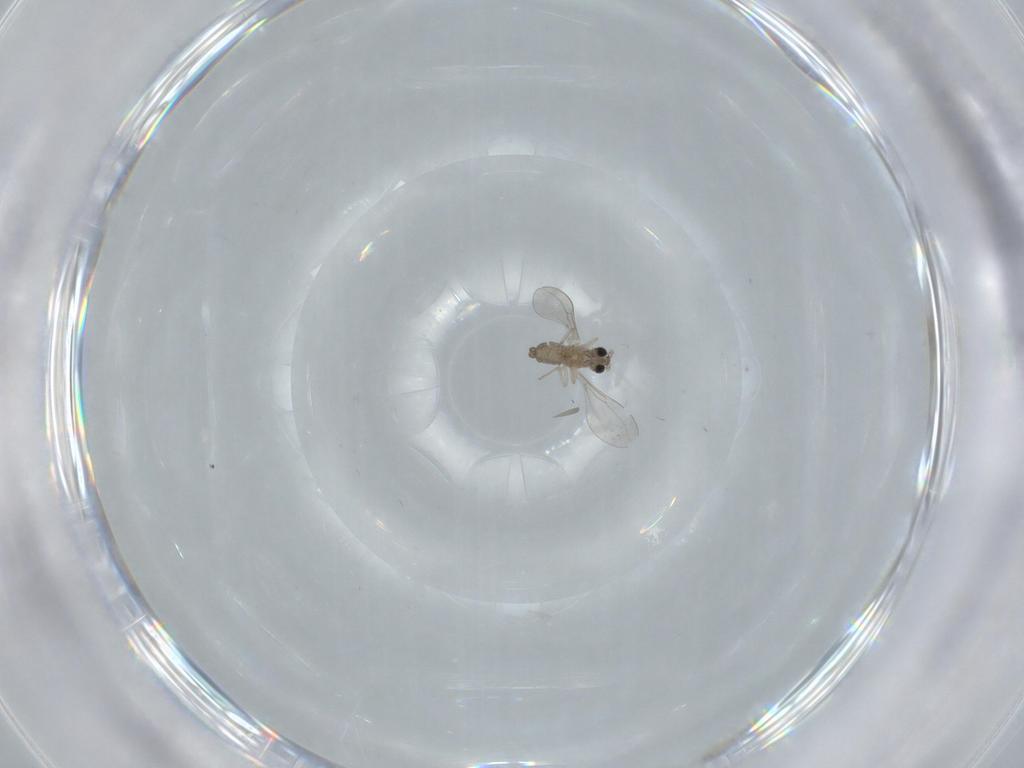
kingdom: Animalia
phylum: Arthropoda
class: Insecta
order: Diptera
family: Cecidomyiidae
